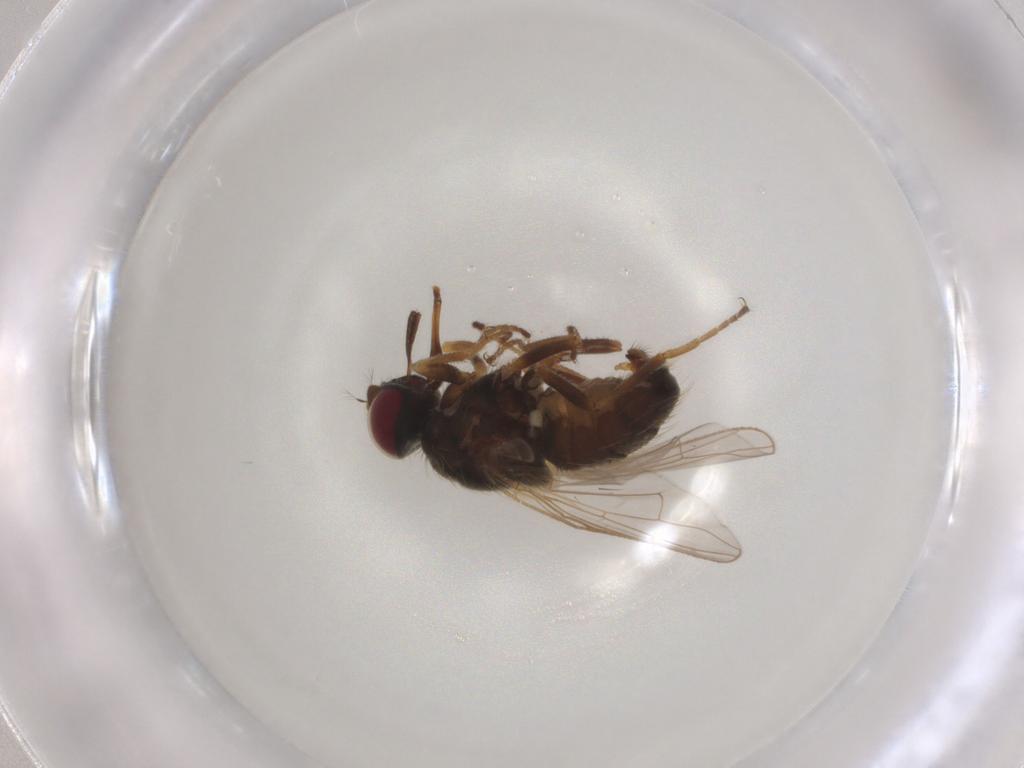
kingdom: Animalia
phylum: Arthropoda
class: Insecta
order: Diptera
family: Muscidae
